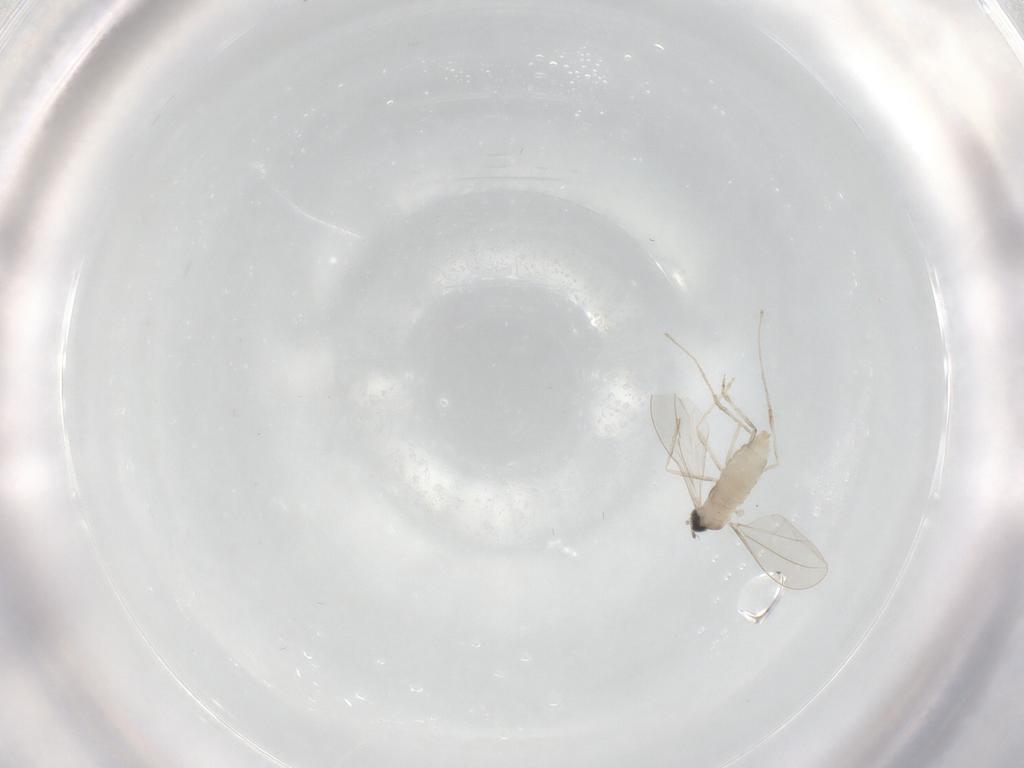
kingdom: Animalia
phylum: Arthropoda
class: Insecta
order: Diptera
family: Cecidomyiidae
